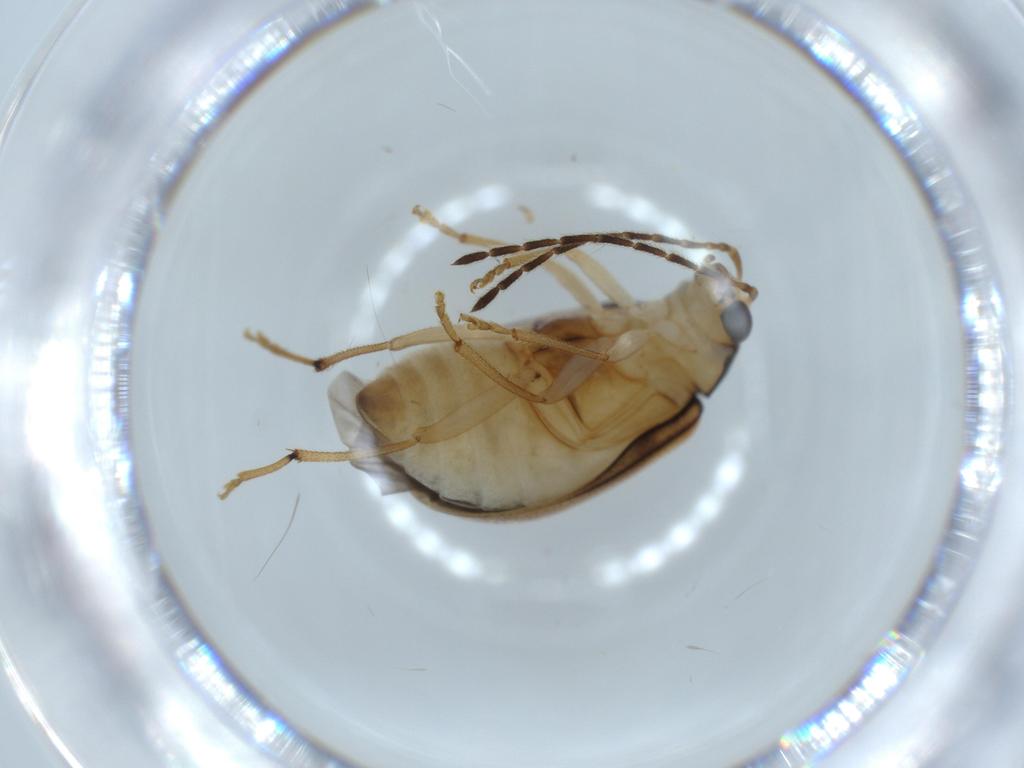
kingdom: Animalia
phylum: Arthropoda
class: Insecta
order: Coleoptera
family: Chrysomelidae
